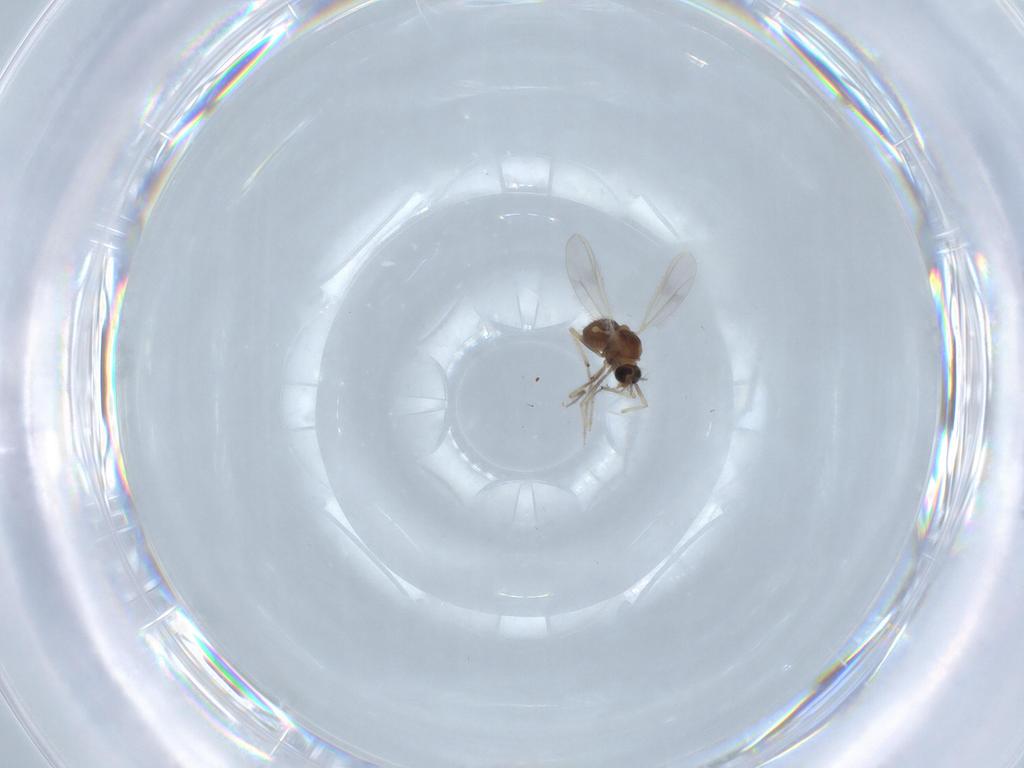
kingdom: Animalia
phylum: Arthropoda
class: Insecta
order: Diptera
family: Chironomidae
